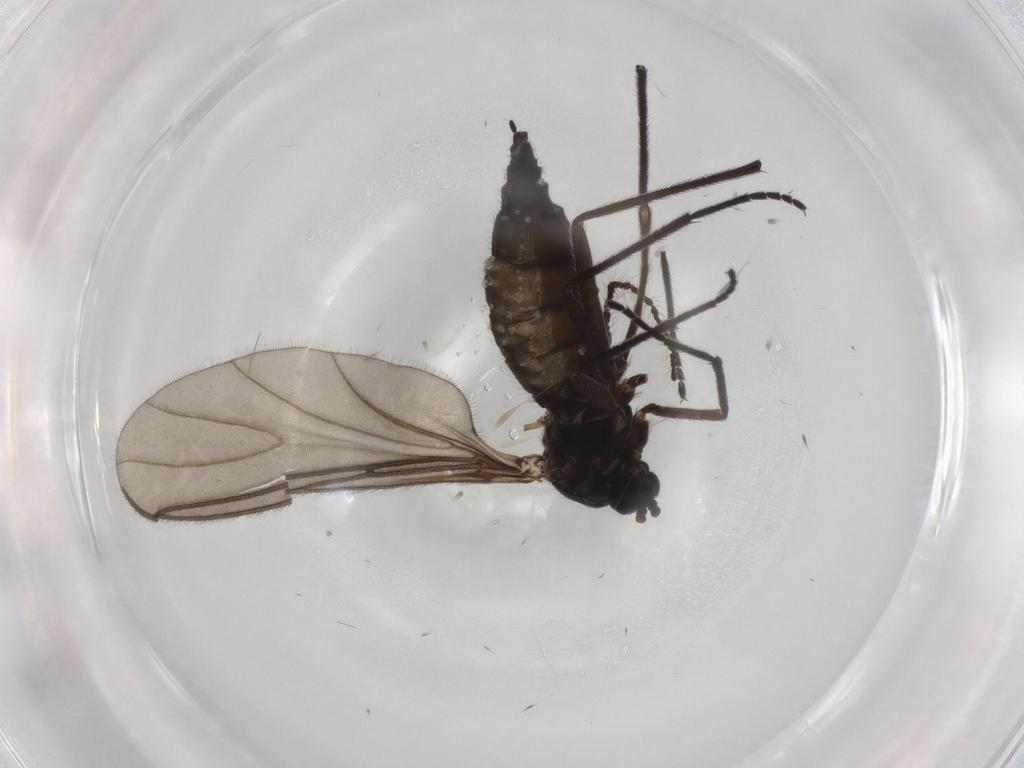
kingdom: Animalia
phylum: Arthropoda
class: Insecta
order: Diptera
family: Sciaridae
